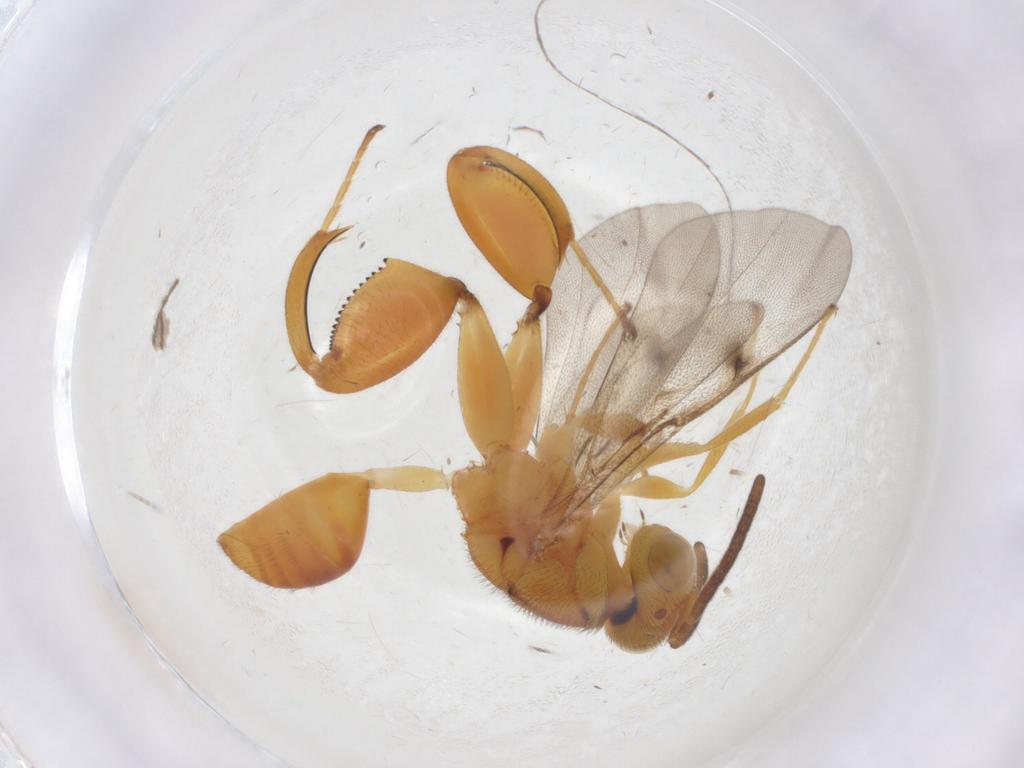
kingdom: Animalia
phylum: Arthropoda
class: Insecta
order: Hymenoptera
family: Chalcididae
